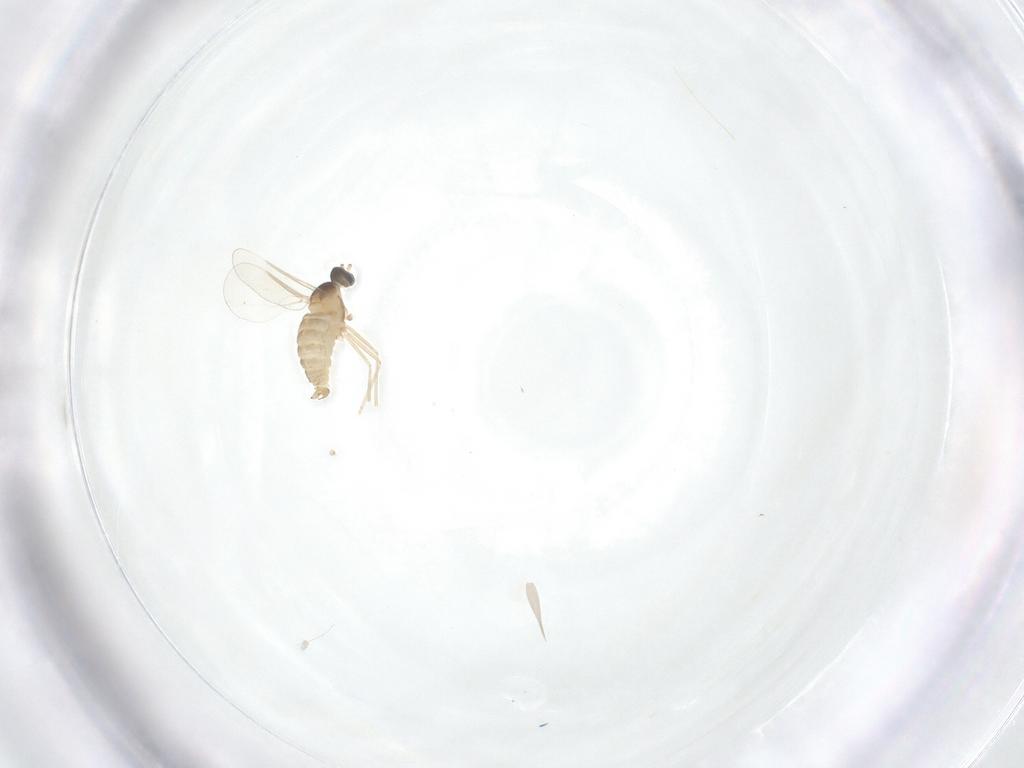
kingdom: Animalia
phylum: Arthropoda
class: Insecta
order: Diptera
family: Cecidomyiidae
